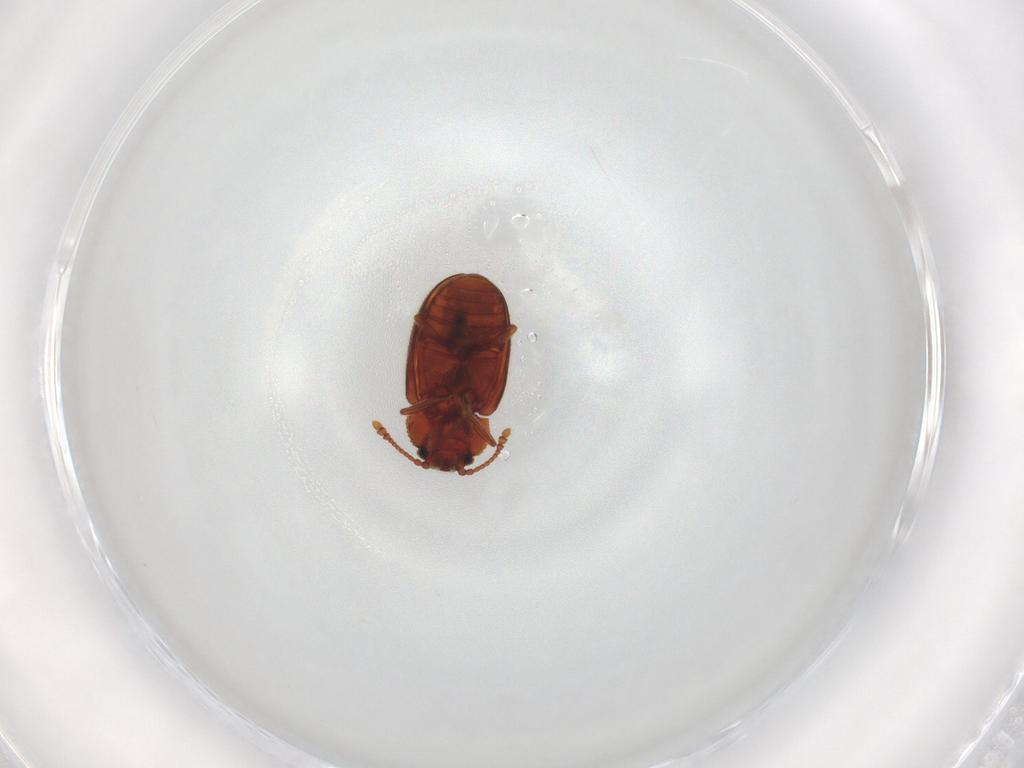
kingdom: Animalia
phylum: Arthropoda
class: Insecta
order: Coleoptera
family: Cryptophagidae
